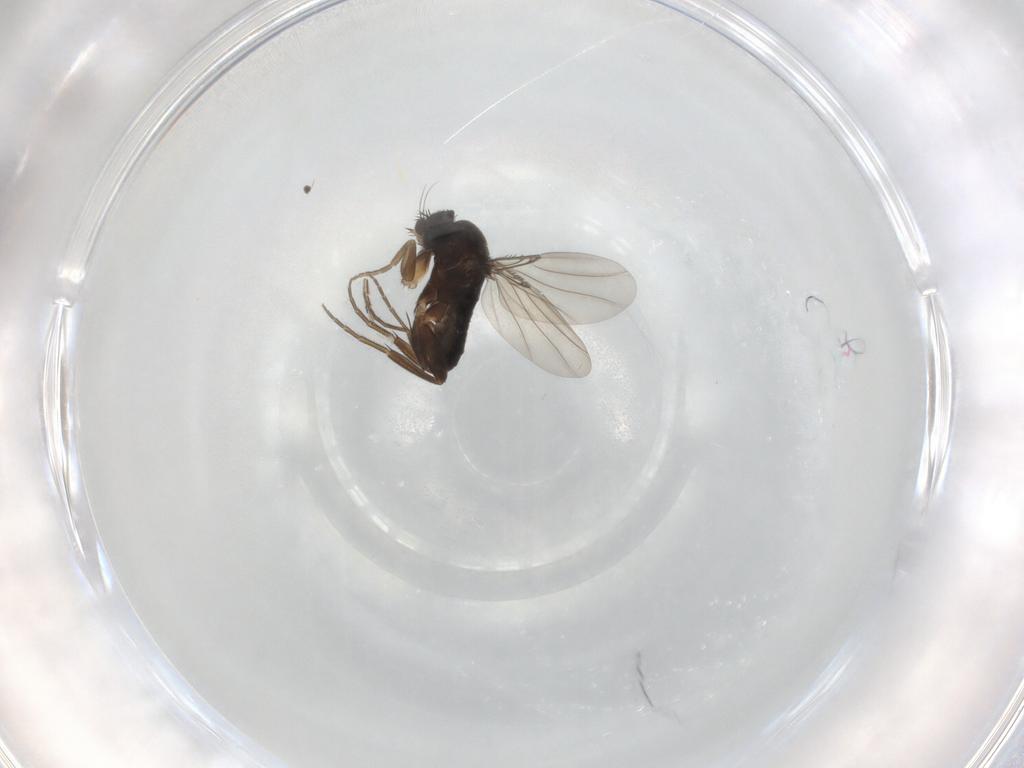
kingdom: Animalia
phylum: Arthropoda
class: Insecta
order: Diptera
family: Phoridae
